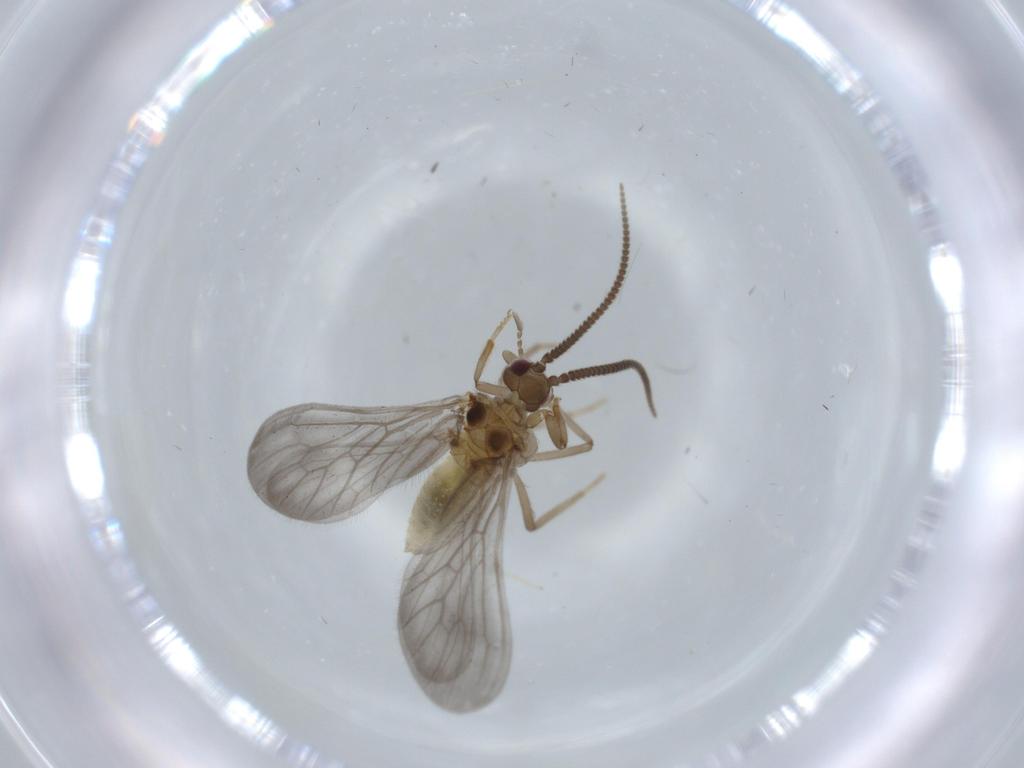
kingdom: Animalia
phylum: Arthropoda
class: Insecta
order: Neuroptera
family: Coniopterygidae
